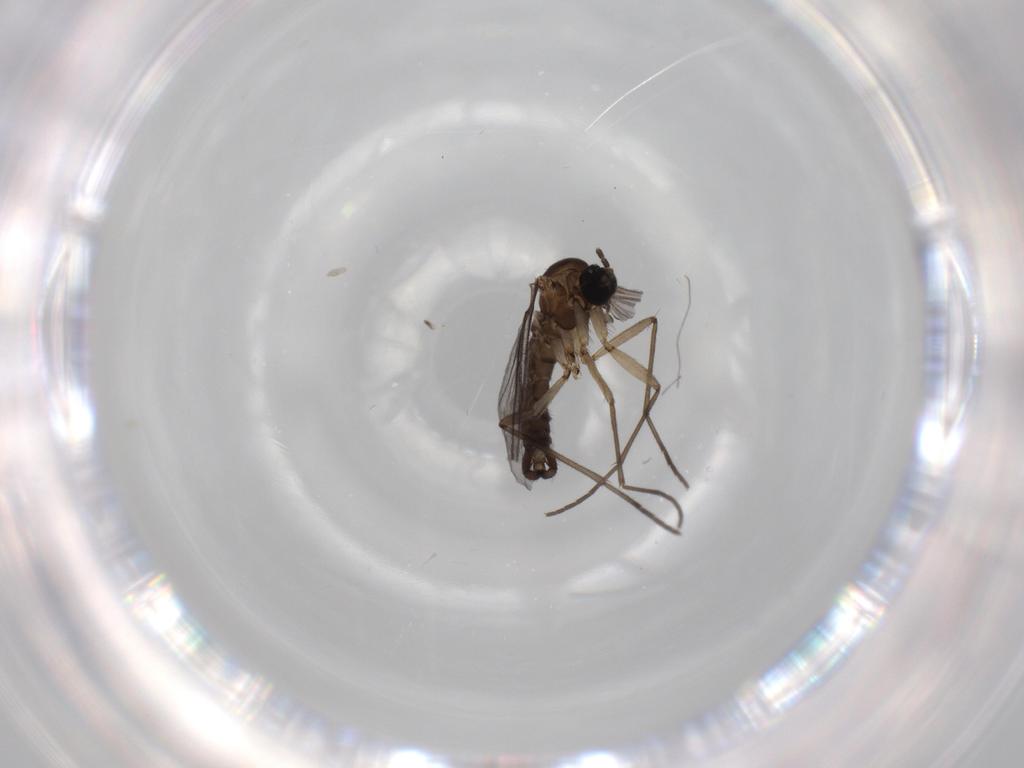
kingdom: Animalia
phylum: Arthropoda
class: Insecta
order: Diptera
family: Sciaridae
